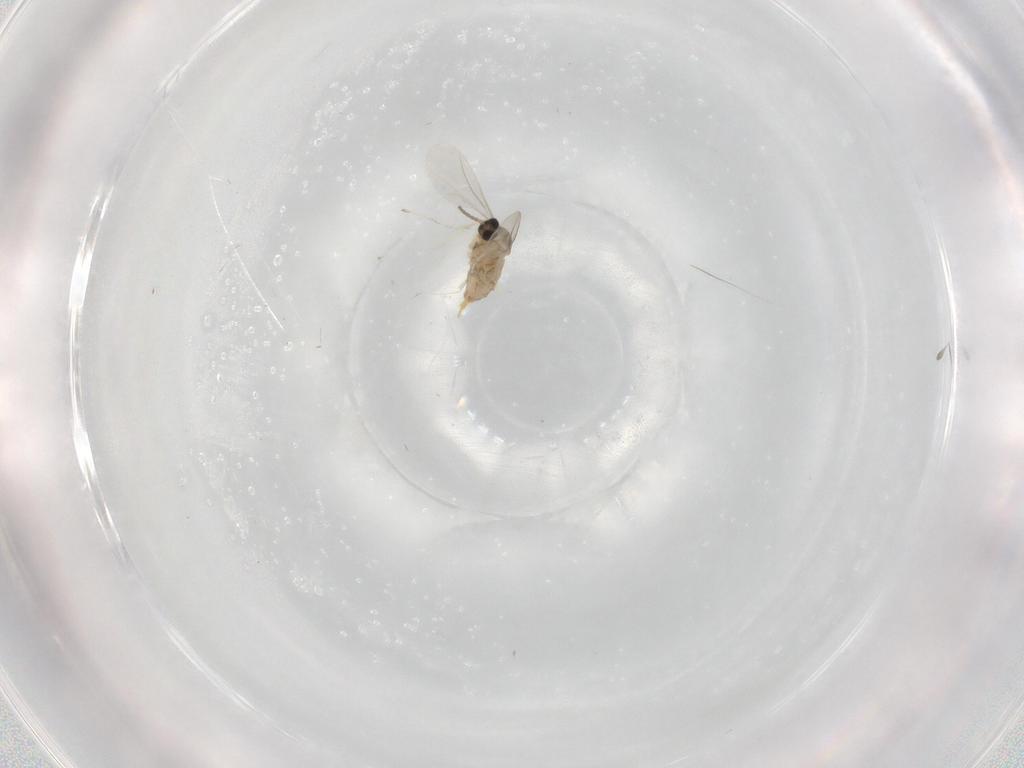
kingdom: Animalia
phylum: Arthropoda
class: Insecta
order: Diptera
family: Cecidomyiidae
